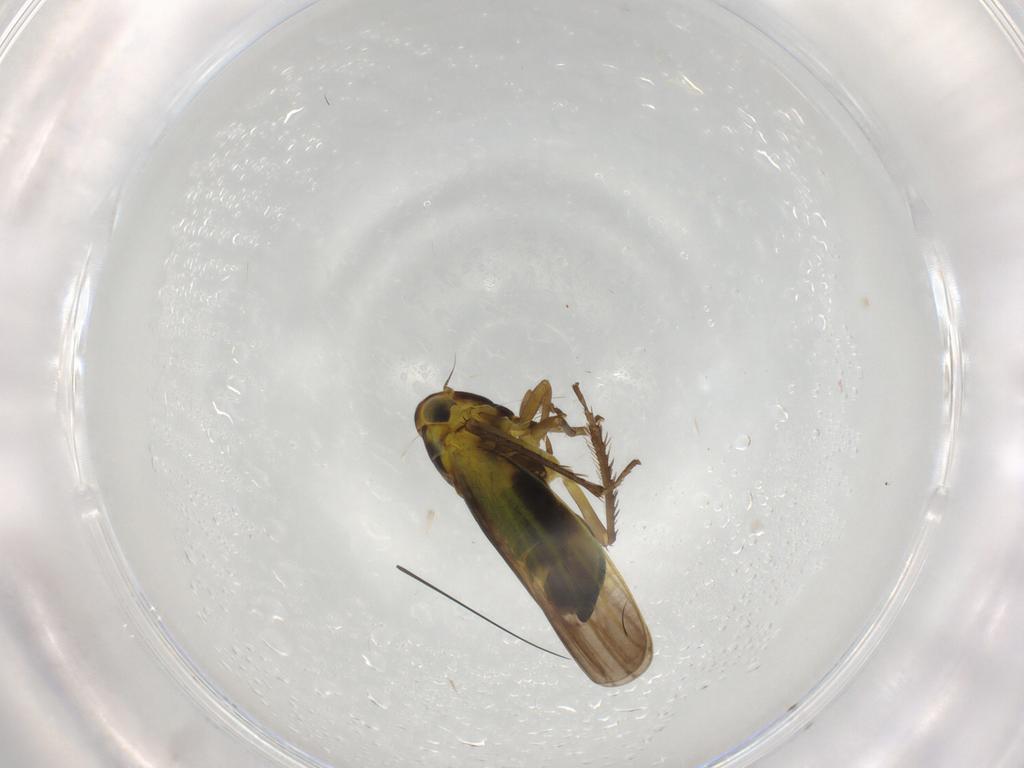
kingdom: Animalia
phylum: Arthropoda
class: Insecta
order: Hemiptera
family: Cicadellidae
